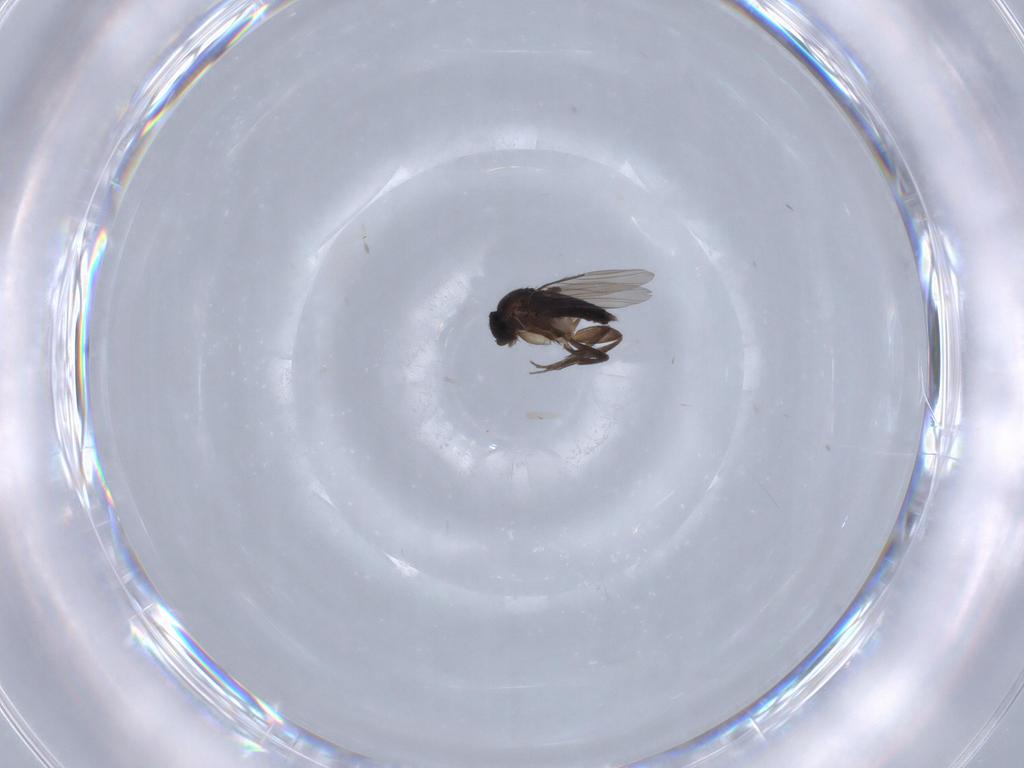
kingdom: Animalia
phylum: Arthropoda
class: Insecta
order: Diptera
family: Phoridae
